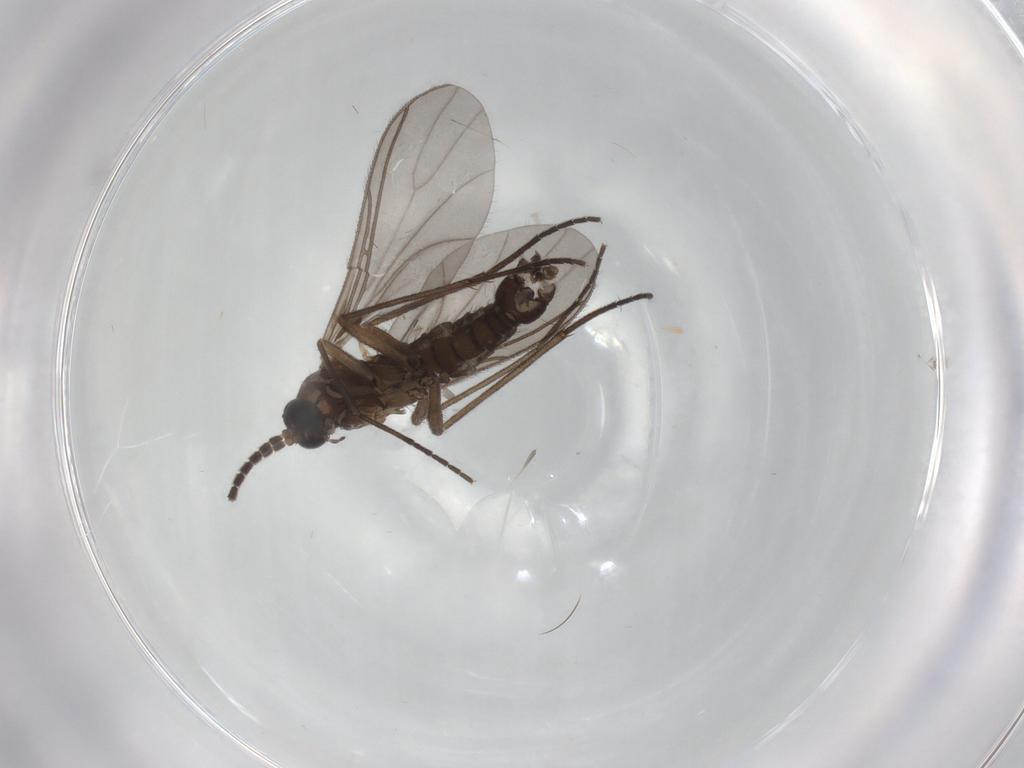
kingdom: Animalia
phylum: Arthropoda
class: Insecta
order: Diptera
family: Sciaridae
